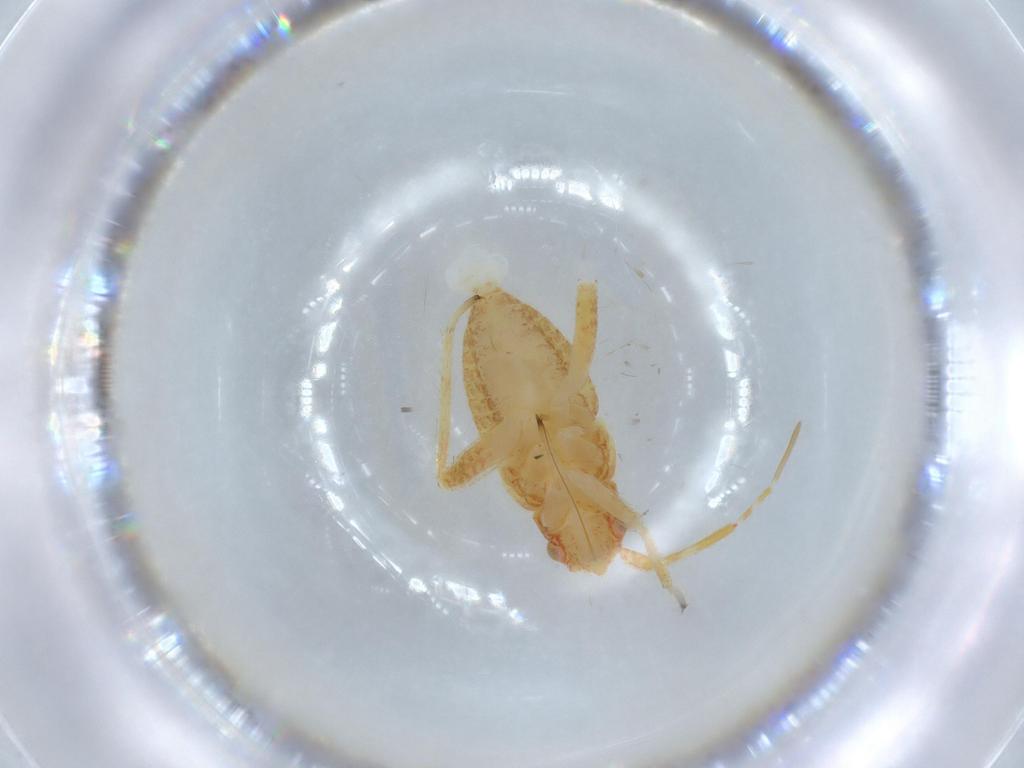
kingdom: Animalia
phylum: Arthropoda
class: Insecta
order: Hemiptera
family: Miridae
